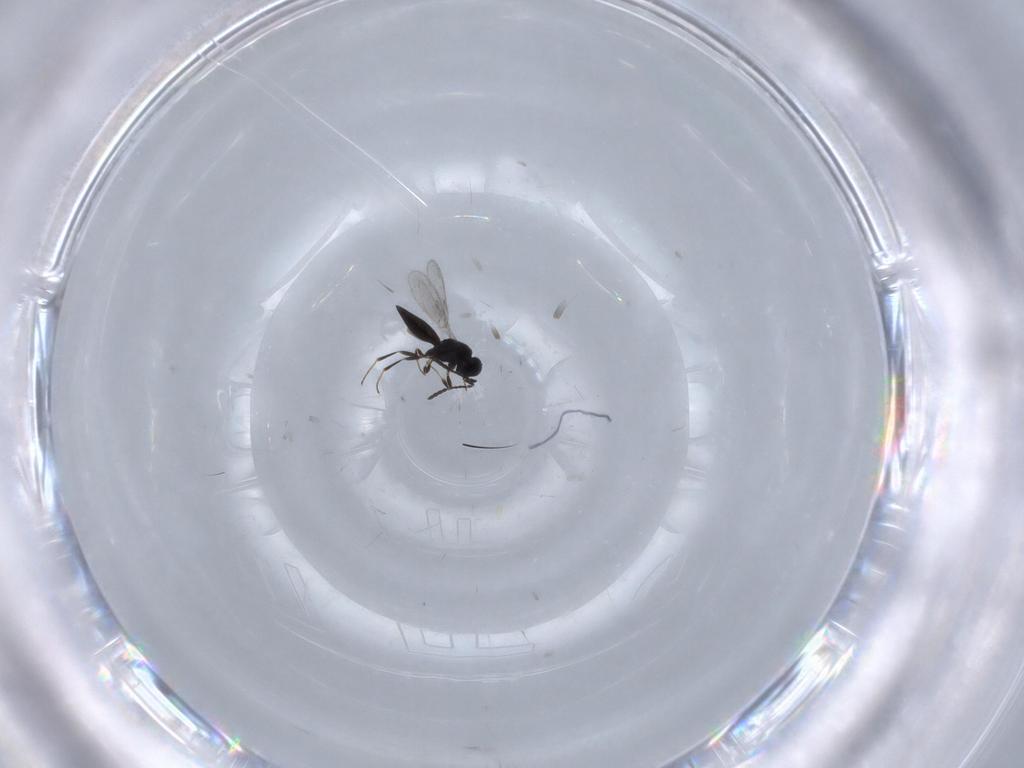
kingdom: Animalia
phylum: Arthropoda
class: Insecta
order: Hymenoptera
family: Scelionidae
